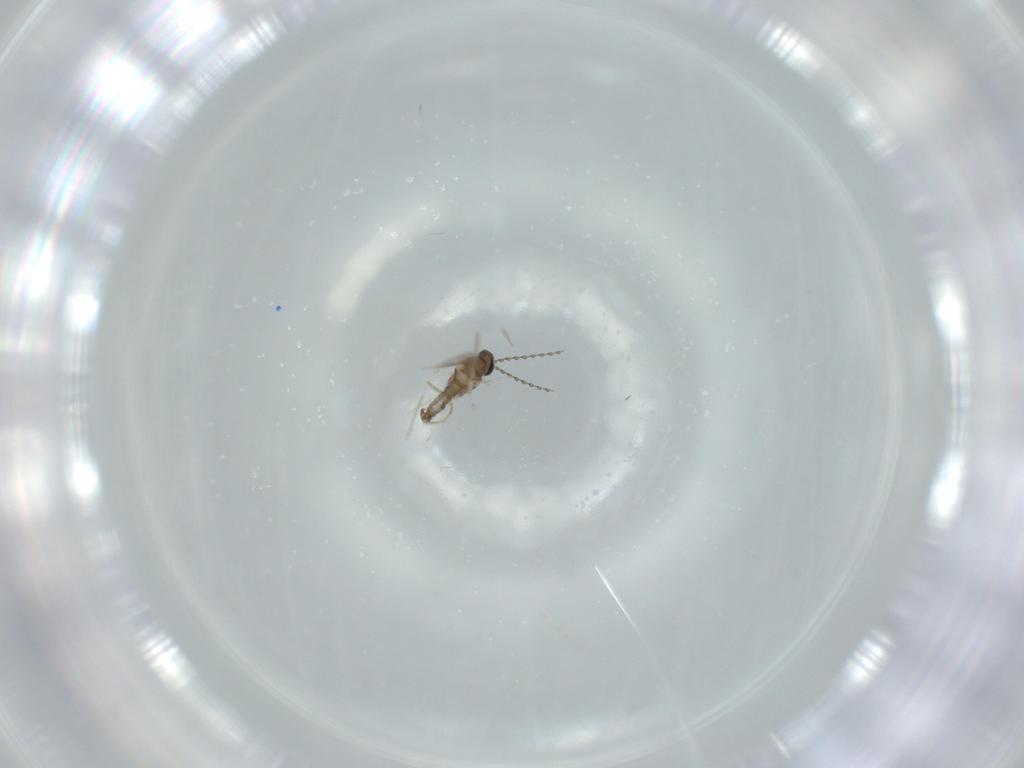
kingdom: Animalia
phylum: Arthropoda
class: Insecta
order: Diptera
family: Cecidomyiidae
